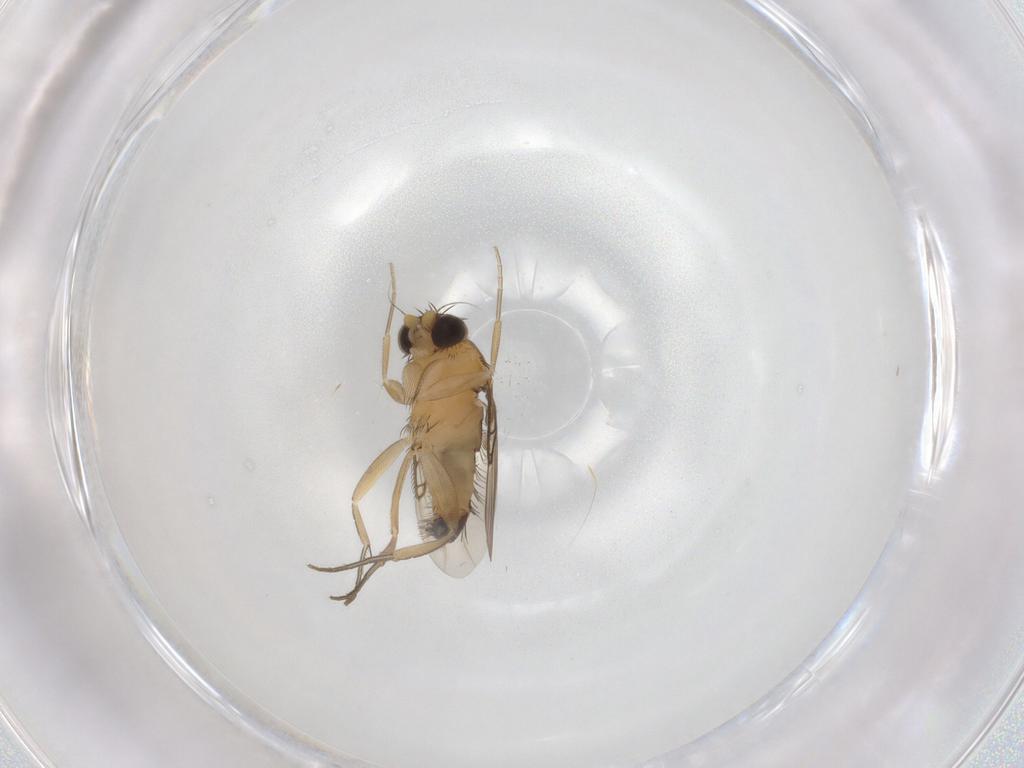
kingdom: Animalia
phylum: Arthropoda
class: Insecta
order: Diptera
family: Phoridae
